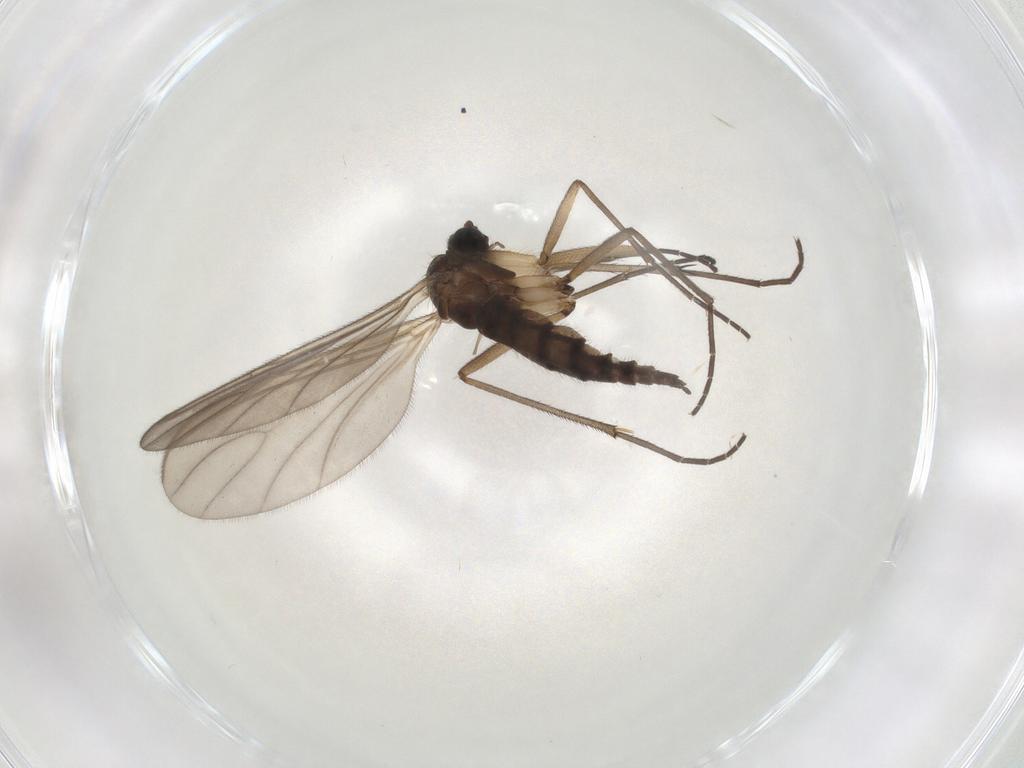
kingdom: Animalia
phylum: Arthropoda
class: Insecta
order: Diptera
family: Sciaridae
